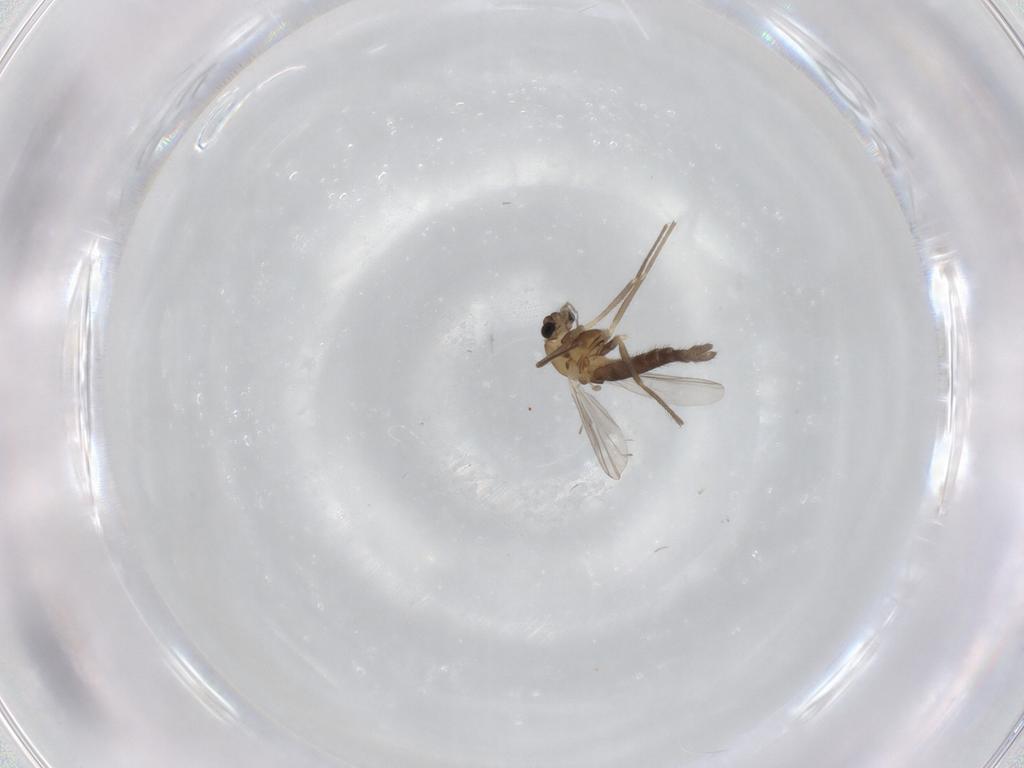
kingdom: Animalia
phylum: Arthropoda
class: Insecta
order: Diptera
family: Chironomidae
